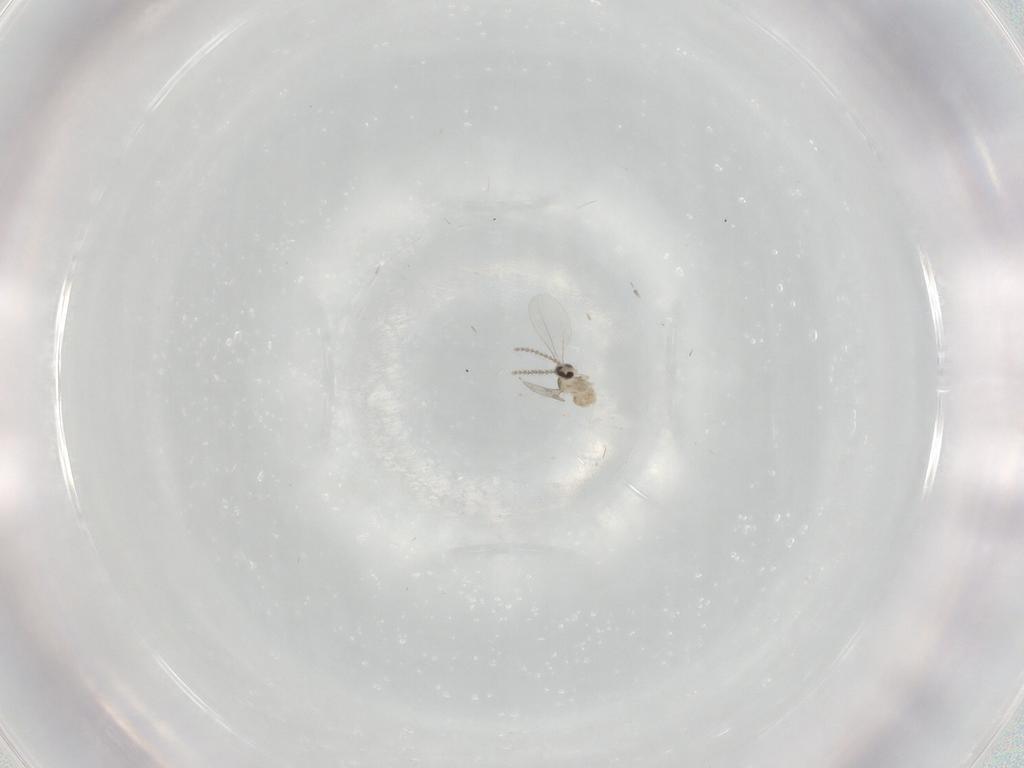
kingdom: Animalia
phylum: Arthropoda
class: Insecta
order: Diptera
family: Cecidomyiidae
